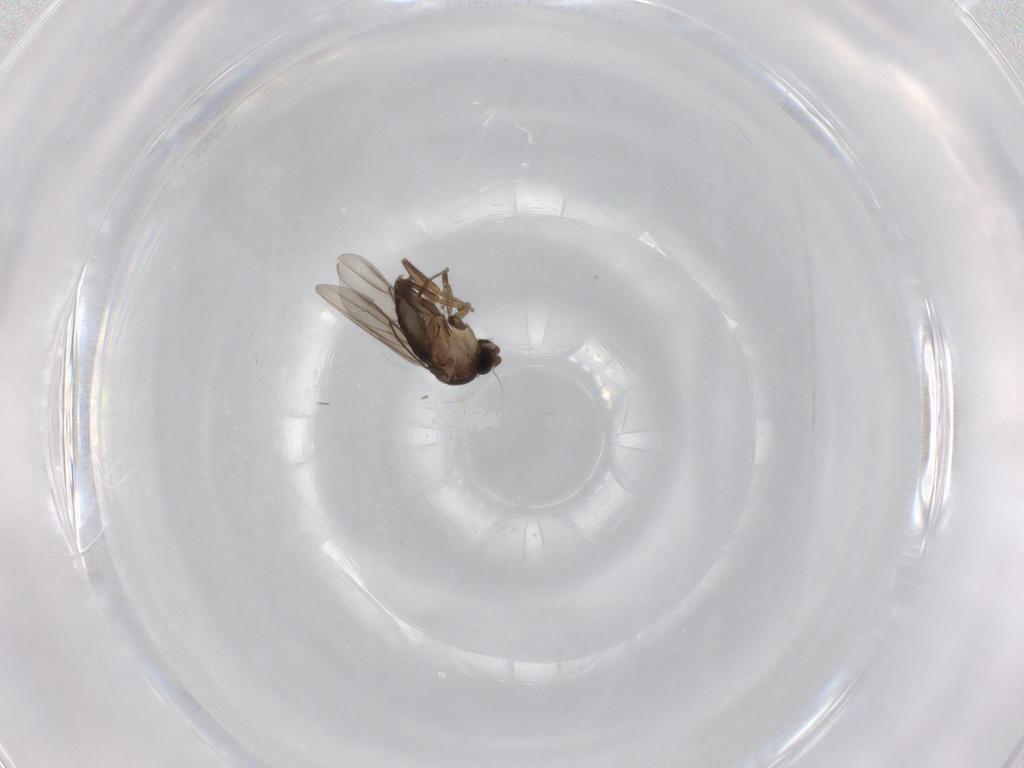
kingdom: Animalia
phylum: Arthropoda
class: Insecta
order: Diptera
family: Phoridae
